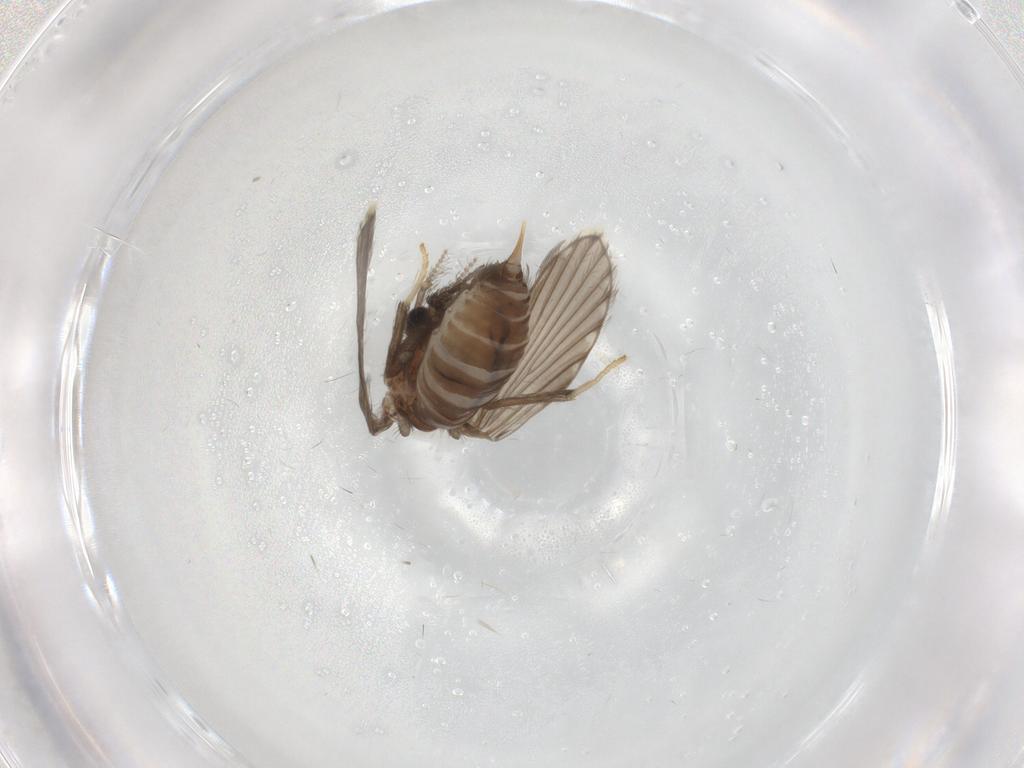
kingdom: Animalia
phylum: Arthropoda
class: Insecta
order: Diptera
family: Psychodidae
